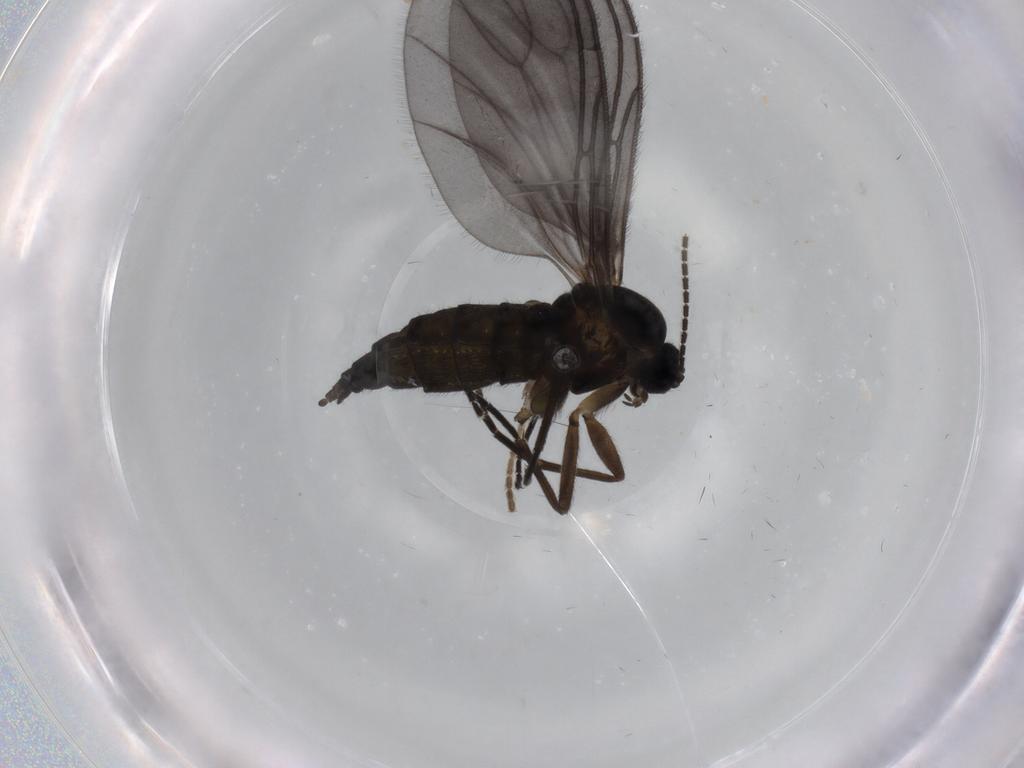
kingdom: Animalia
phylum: Arthropoda
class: Insecta
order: Diptera
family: Sciaridae
